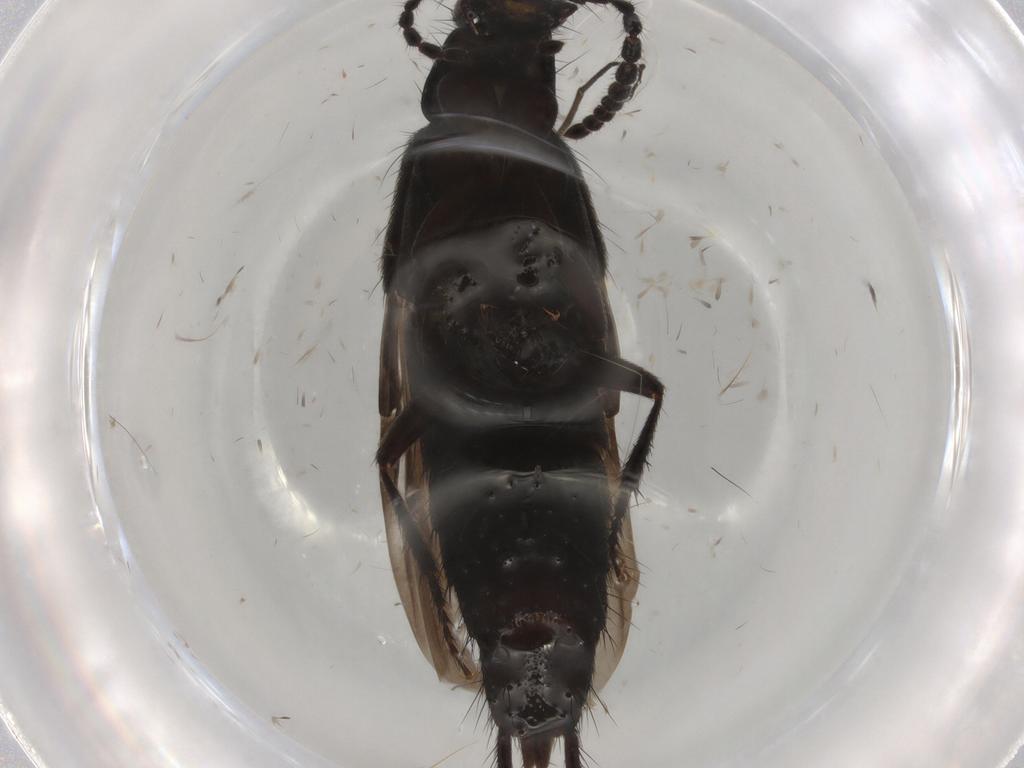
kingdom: Animalia
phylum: Arthropoda
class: Insecta
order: Coleoptera
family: Staphylinidae
